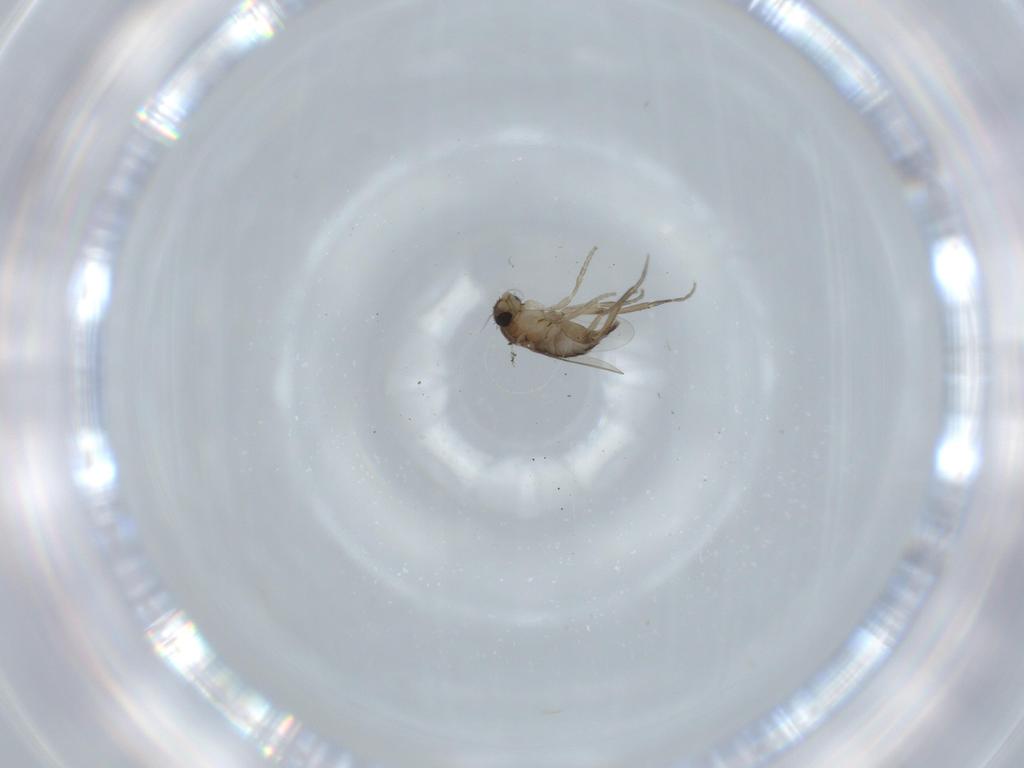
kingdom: Animalia
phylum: Arthropoda
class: Insecta
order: Diptera
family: Phoridae
